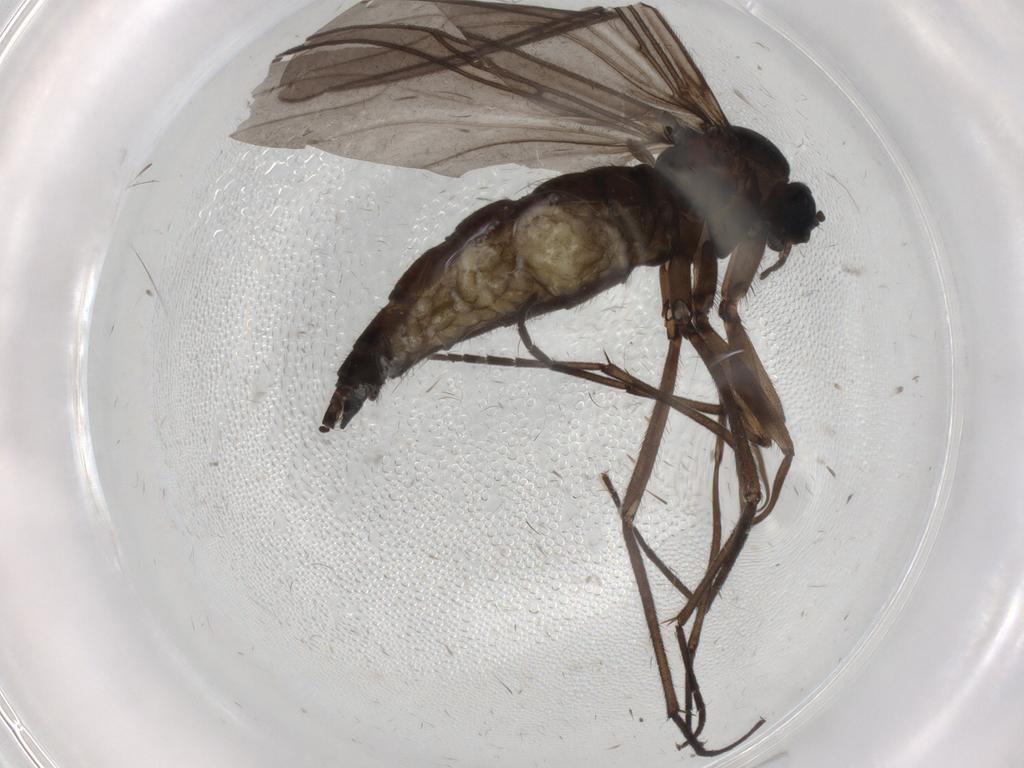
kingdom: Animalia
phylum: Arthropoda
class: Insecta
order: Diptera
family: Sciaridae
